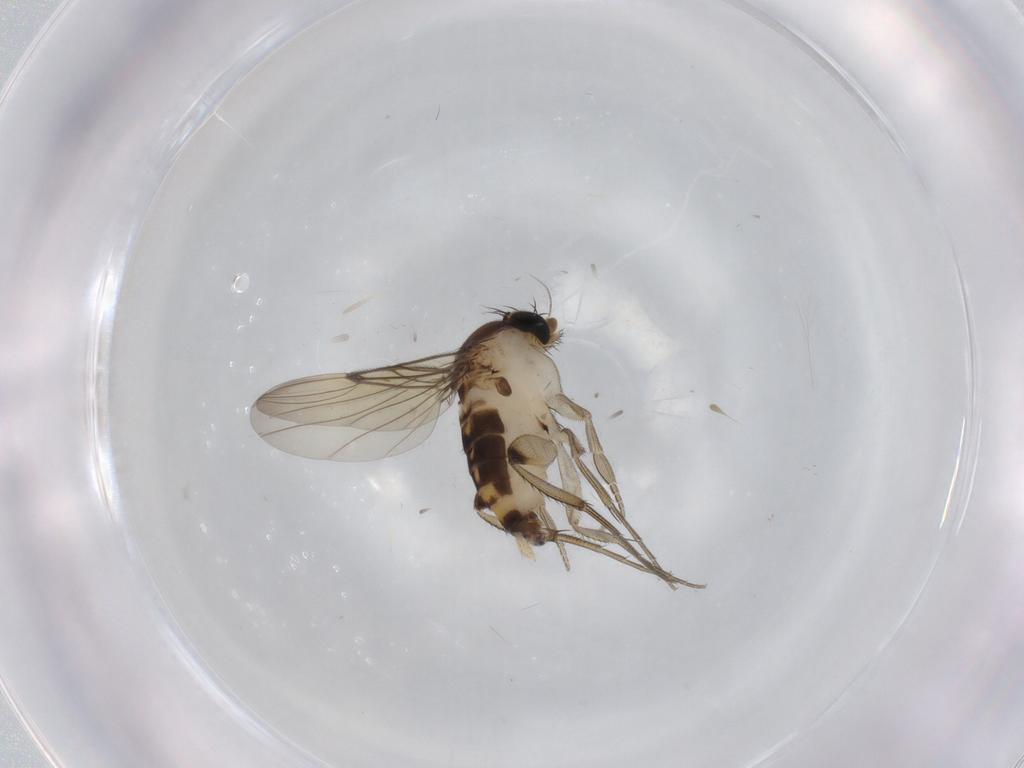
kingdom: Animalia
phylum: Arthropoda
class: Insecta
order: Diptera
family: Phoridae
